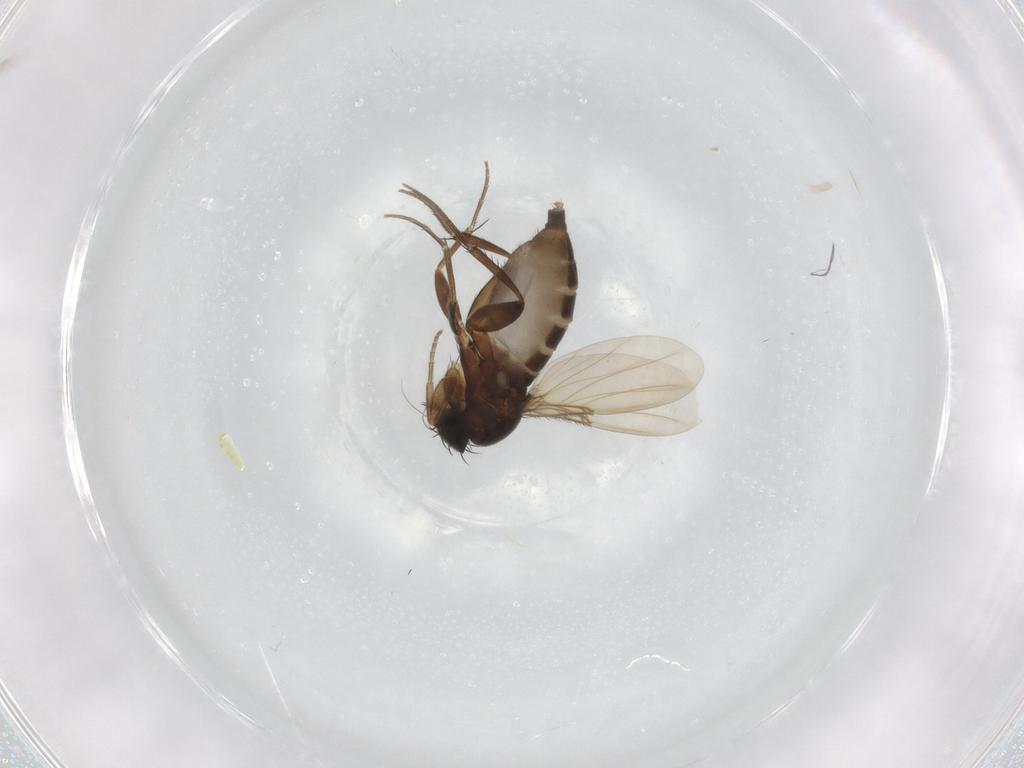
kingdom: Animalia
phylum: Arthropoda
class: Insecta
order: Diptera
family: Phoridae
